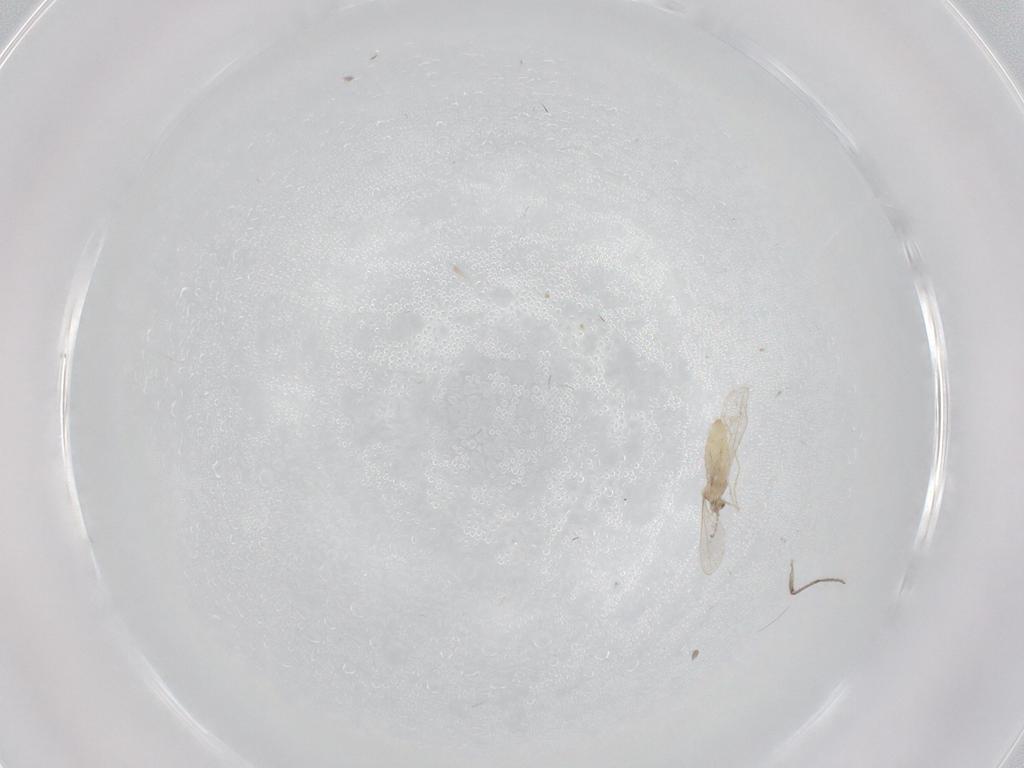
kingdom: Animalia
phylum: Arthropoda
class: Insecta
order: Diptera
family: Cecidomyiidae
